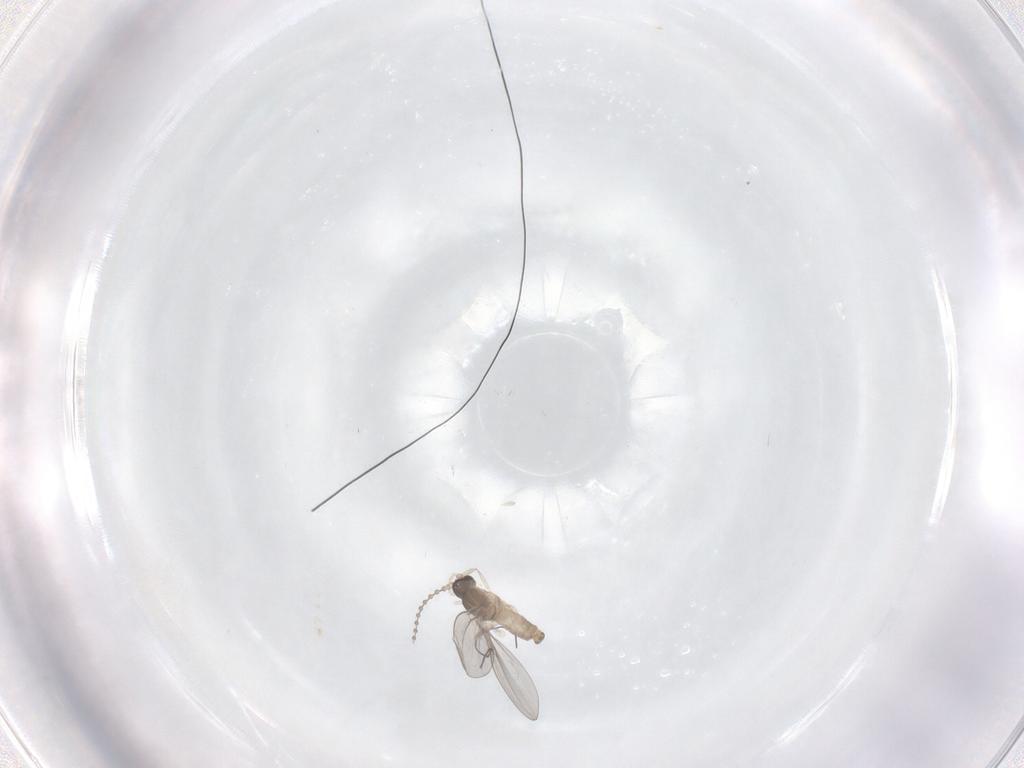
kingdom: Animalia
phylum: Arthropoda
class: Insecta
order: Diptera
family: Cecidomyiidae
